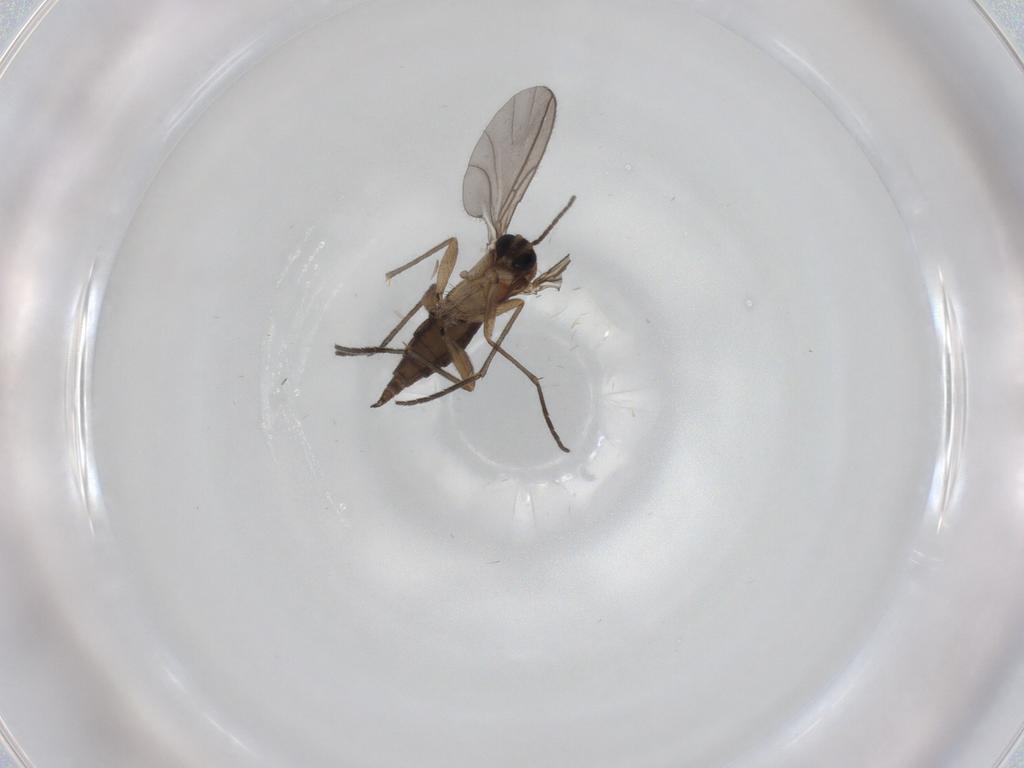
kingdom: Animalia
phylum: Arthropoda
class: Insecta
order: Diptera
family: Sciaridae
